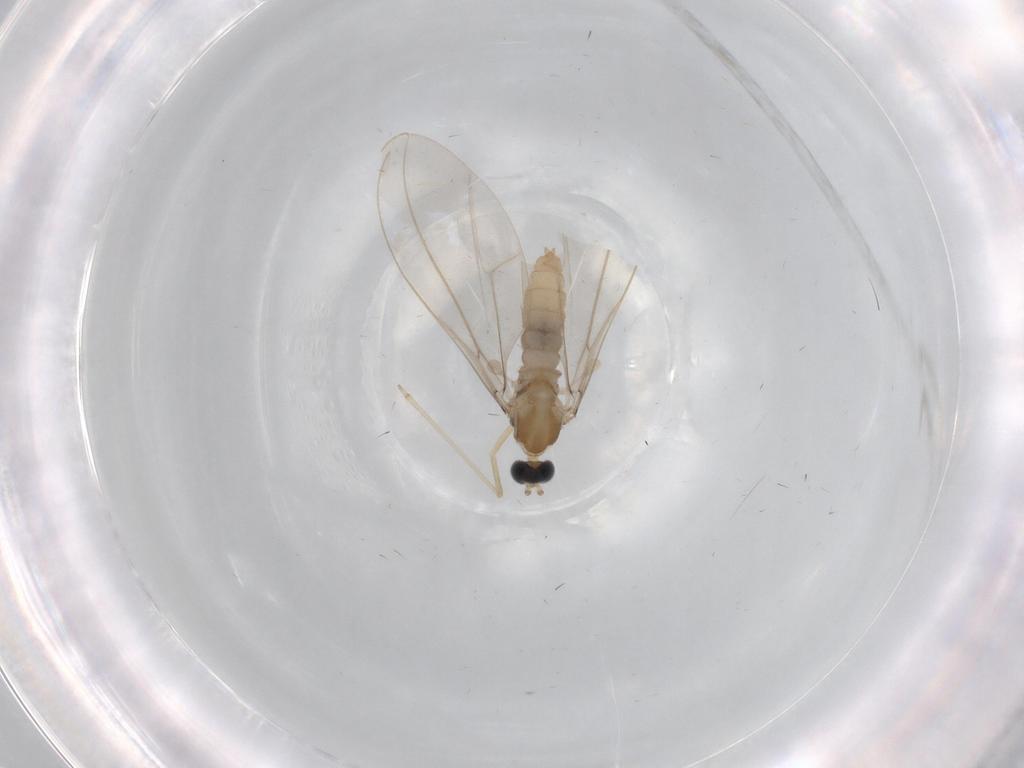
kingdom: Animalia
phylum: Arthropoda
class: Insecta
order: Diptera
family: Cecidomyiidae
